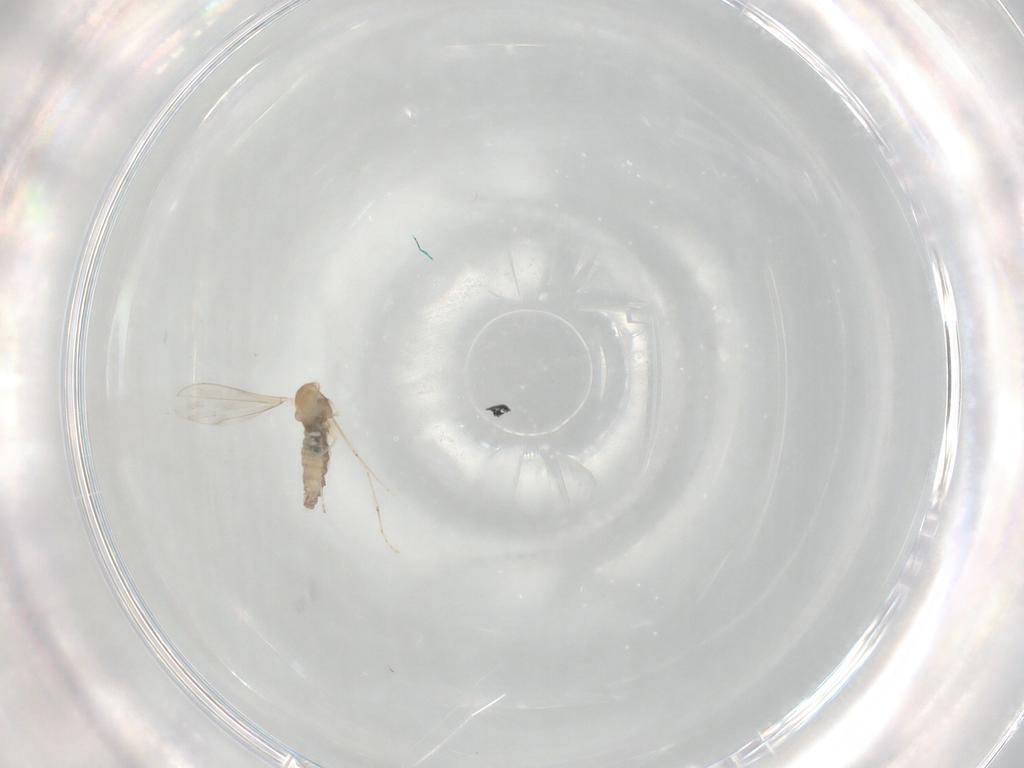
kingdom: Animalia
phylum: Arthropoda
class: Insecta
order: Diptera
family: Cecidomyiidae
